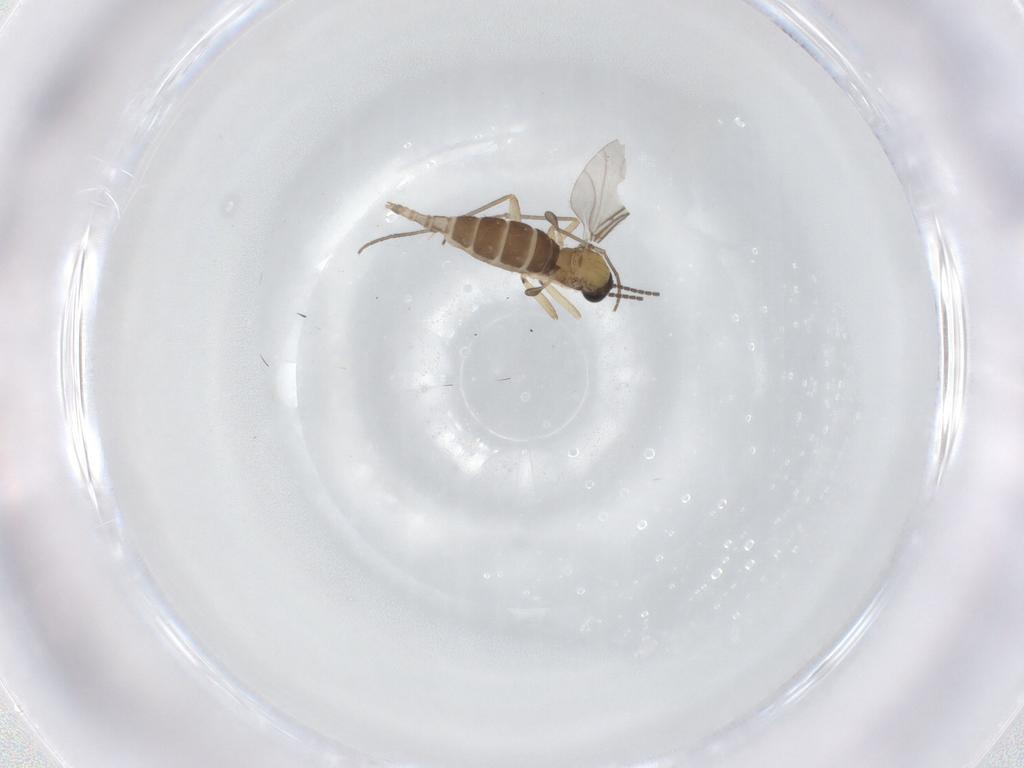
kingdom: Animalia
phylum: Arthropoda
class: Insecta
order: Diptera
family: Sciaridae
